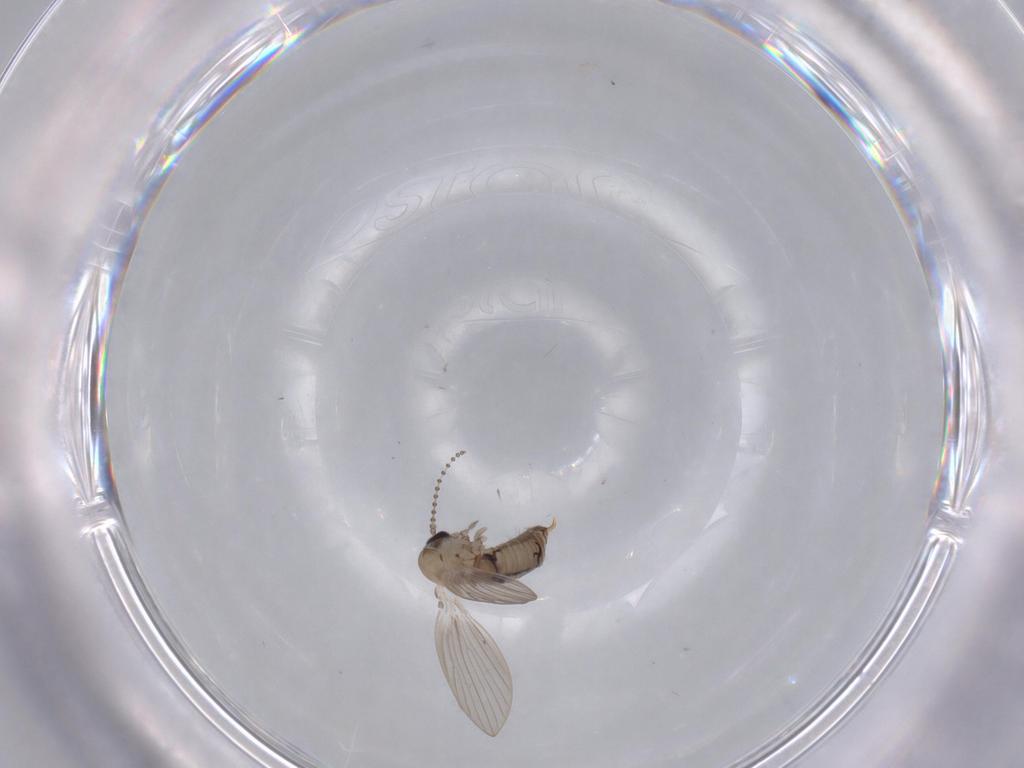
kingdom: Animalia
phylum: Arthropoda
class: Insecta
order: Diptera
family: Psychodidae
